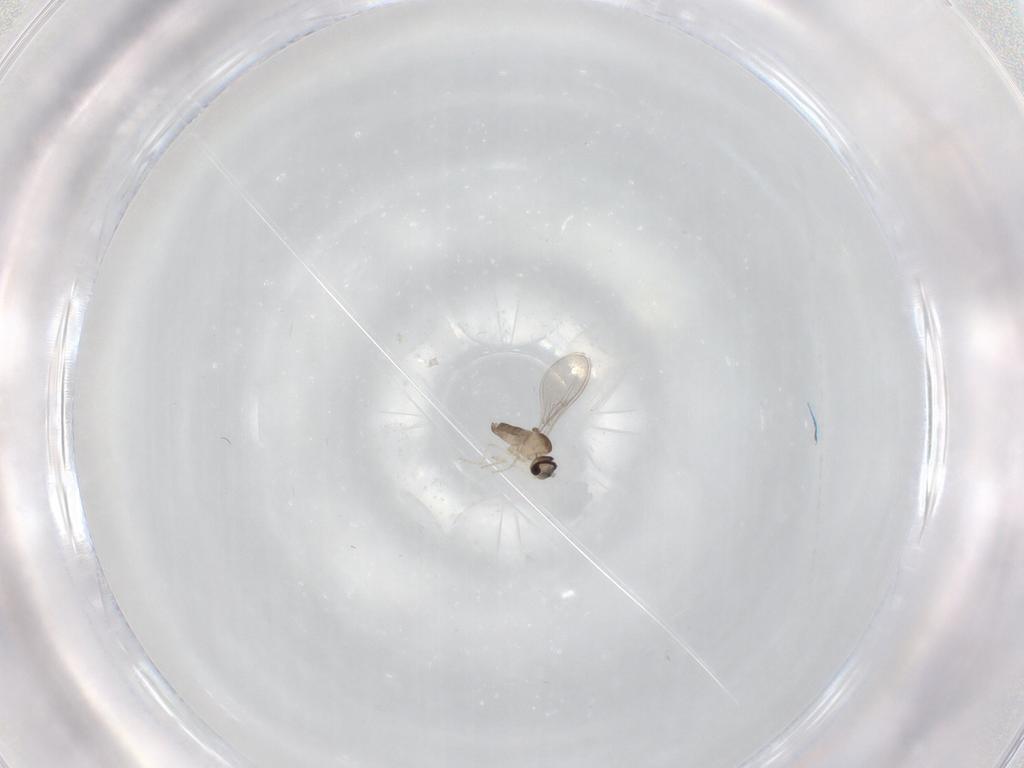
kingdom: Animalia
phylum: Arthropoda
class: Insecta
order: Diptera
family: Cecidomyiidae
